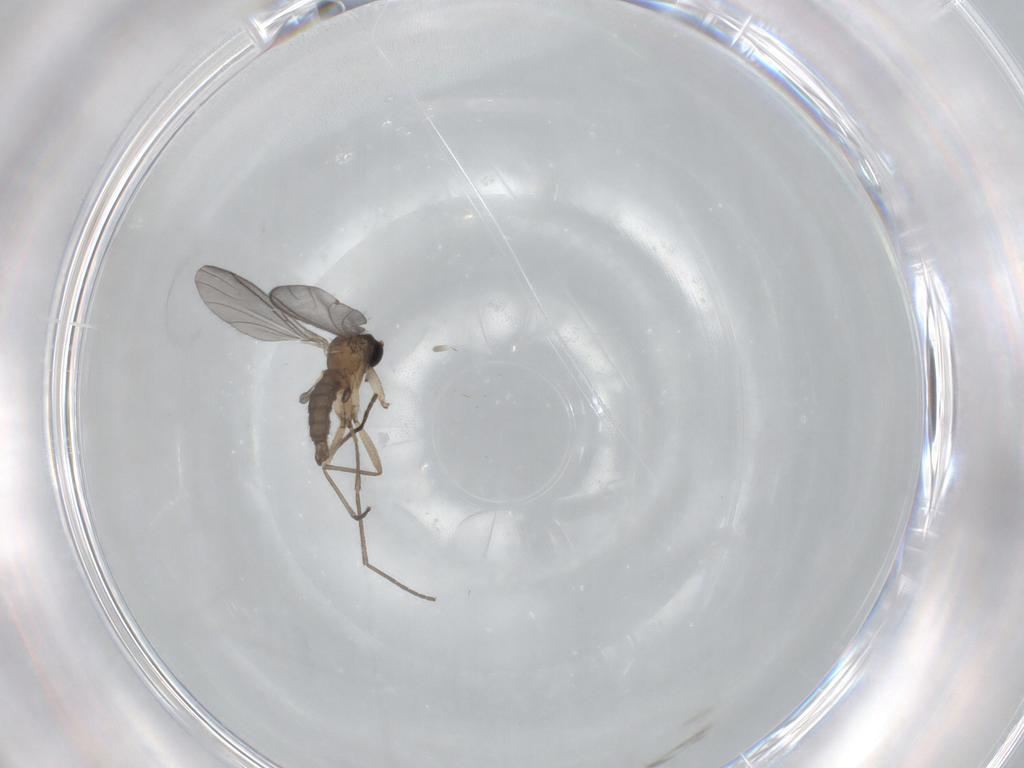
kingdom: Animalia
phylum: Arthropoda
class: Insecta
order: Diptera
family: Sciaridae
